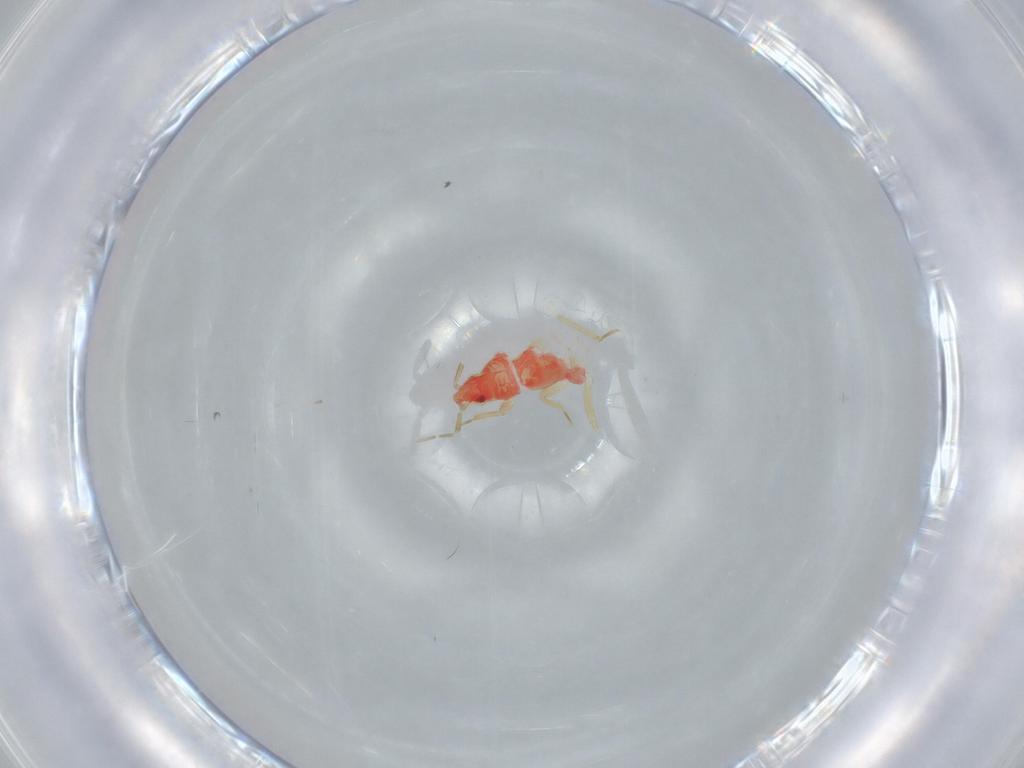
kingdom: Animalia
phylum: Arthropoda
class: Insecta
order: Hemiptera
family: Anthocoridae
